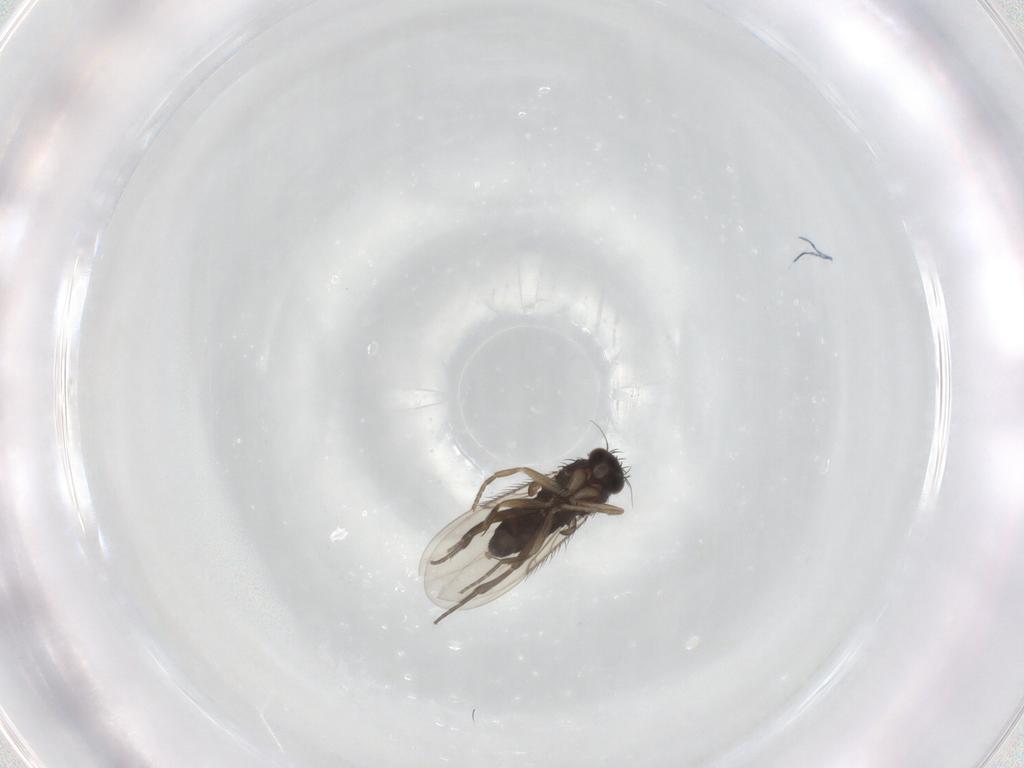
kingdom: Animalia
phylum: Arthropoda
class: Insecta
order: Diptera
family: Phoridae
